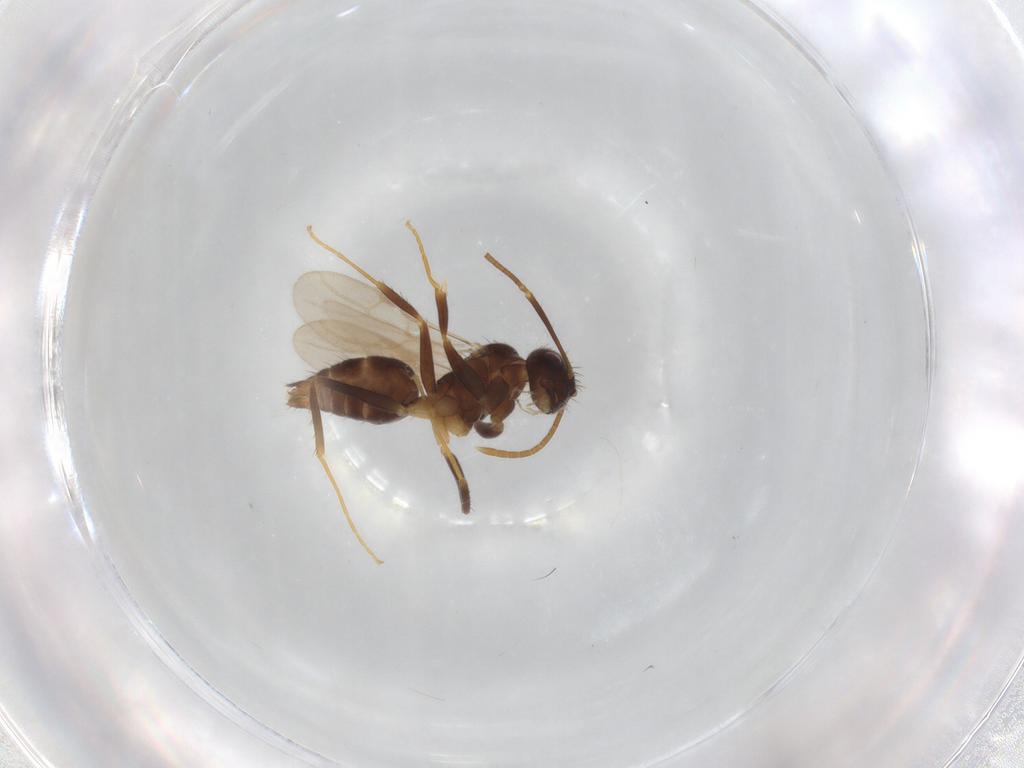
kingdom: Animalia
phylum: Arthropoda
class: Insecta
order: Hymenoptera
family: Formicidae
